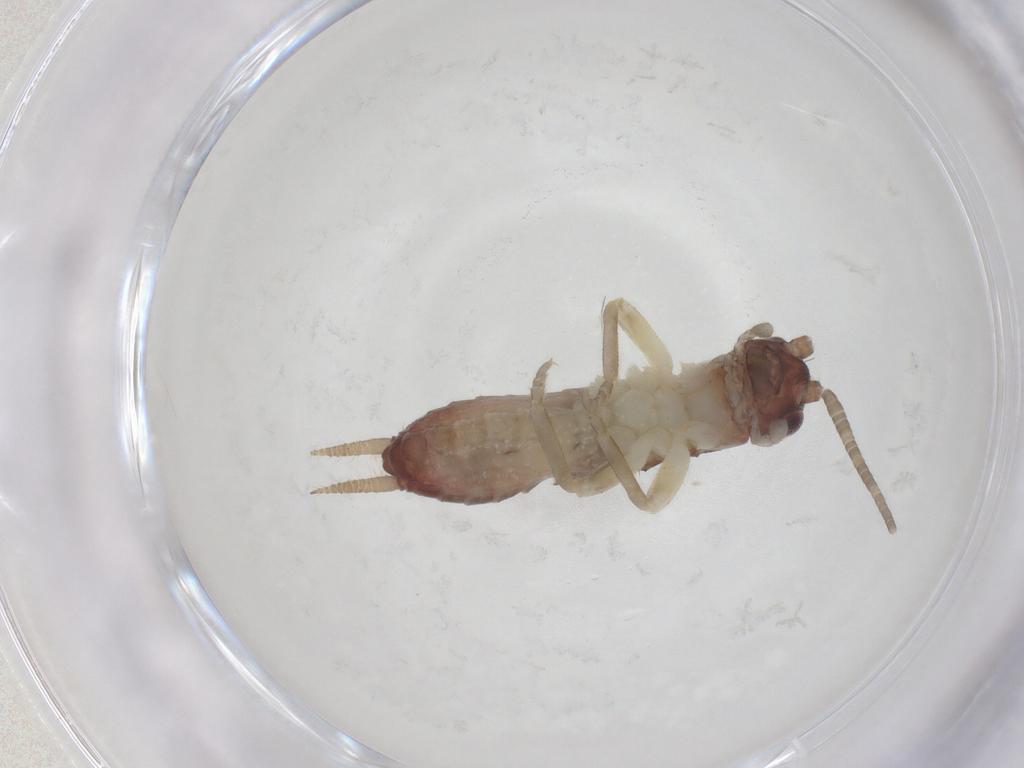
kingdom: Animalia
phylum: Arthropoda
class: Insecta
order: Orthoptera
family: Gryllidae
